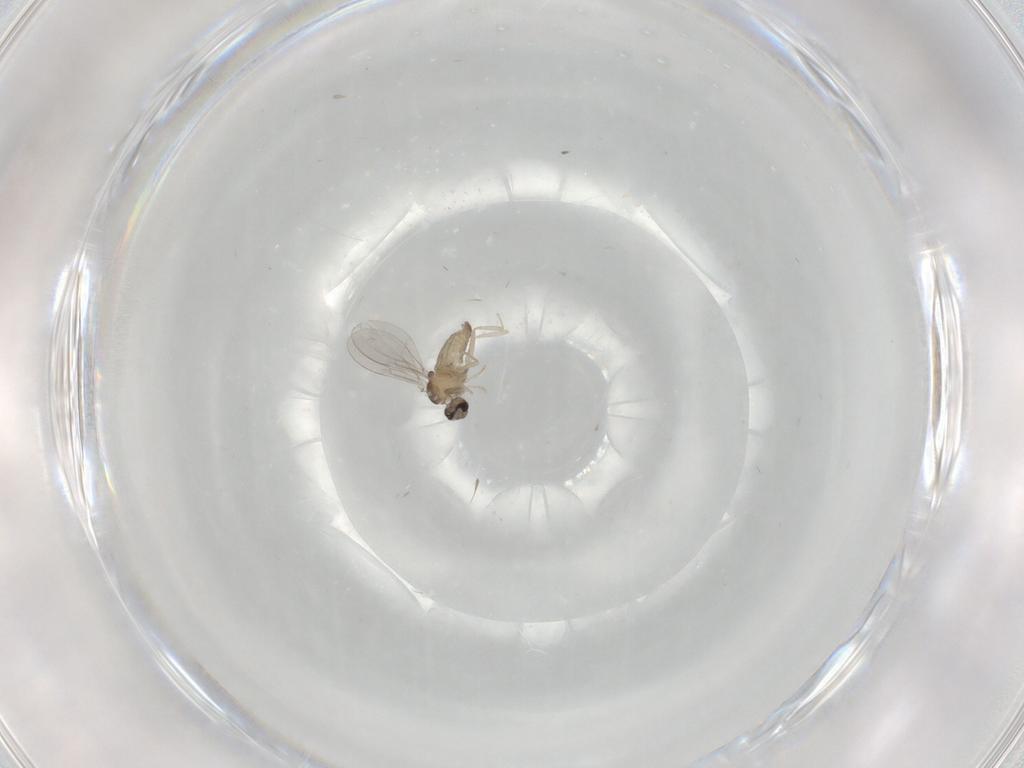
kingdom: Animalia
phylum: Arthropoda
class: Insecta
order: Diptera
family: Cecidomyiidae
